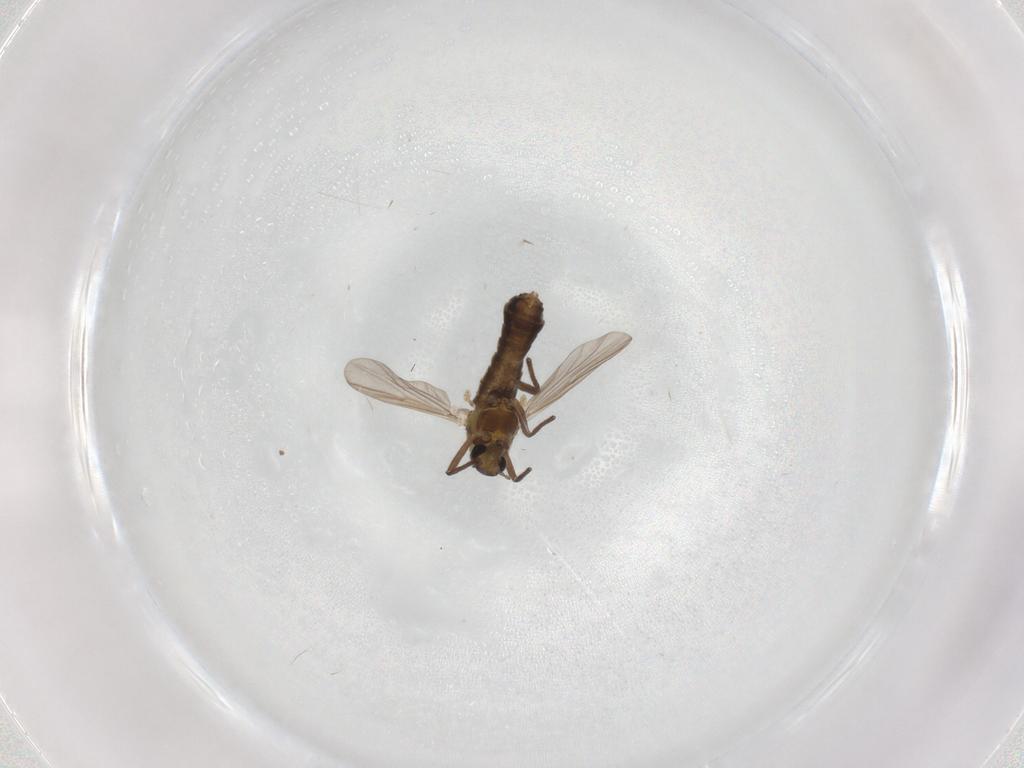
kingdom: Animalia
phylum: Arthropoda
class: Insecta
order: Diptera
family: Chironomidae
